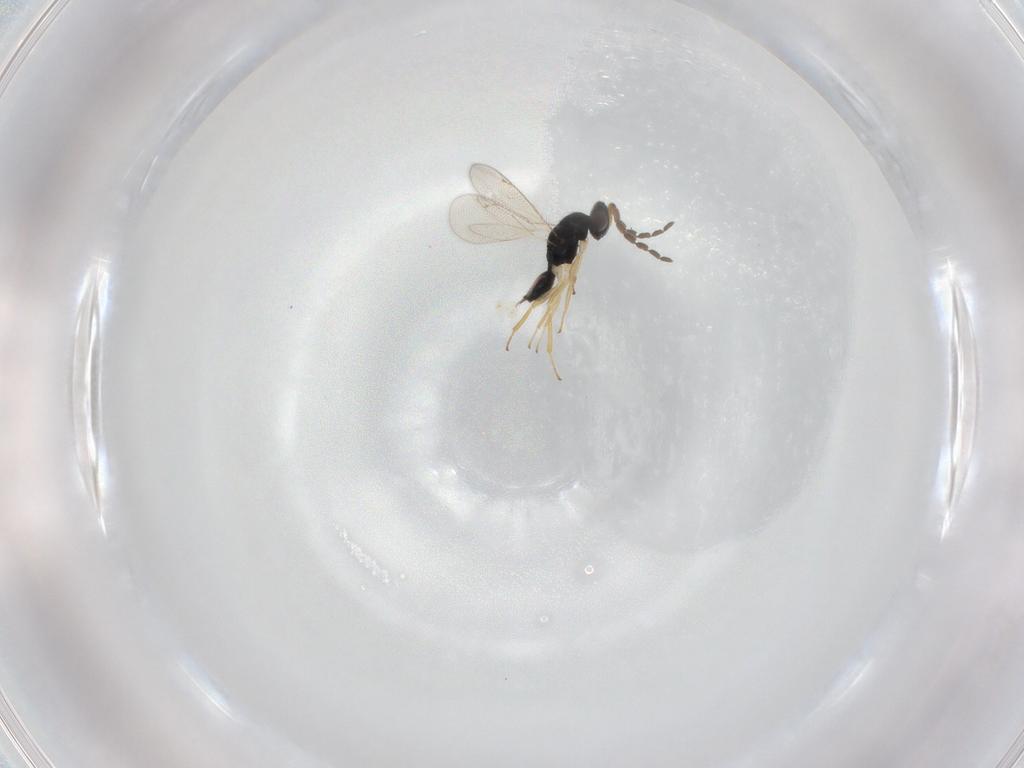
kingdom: Animalia
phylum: Arthropoda
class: Insecta
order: Hymenoptera
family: Eulophidae
